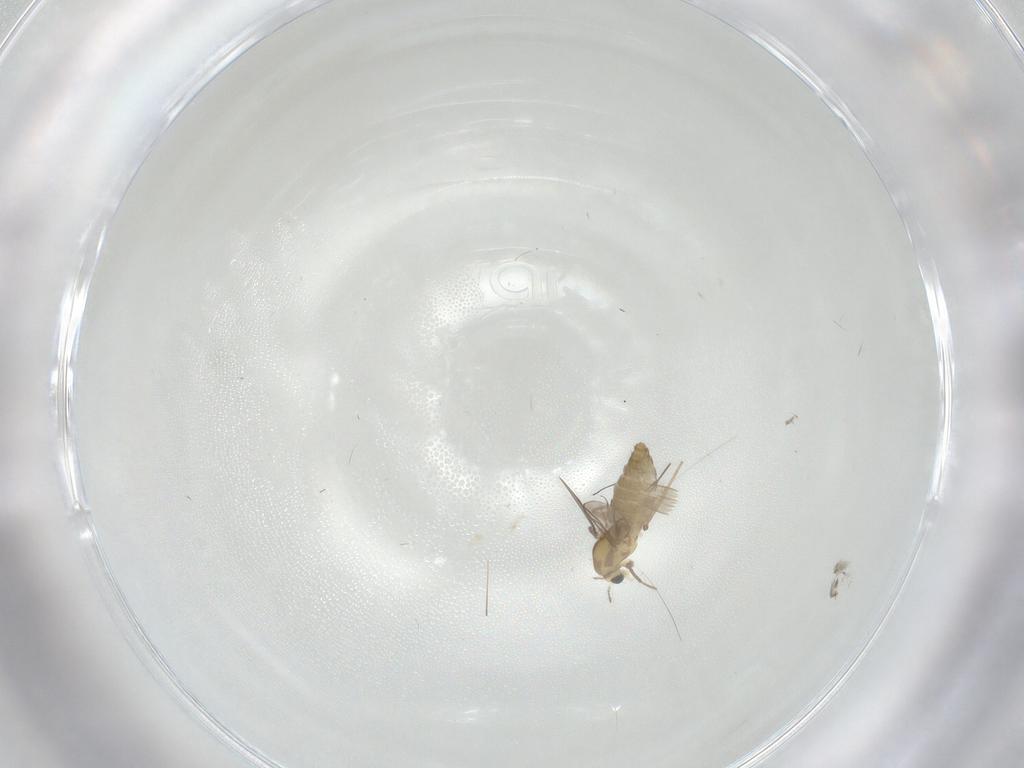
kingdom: Animalia
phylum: Arthropoda
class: Insecta
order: Diptera
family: Chironomidae
